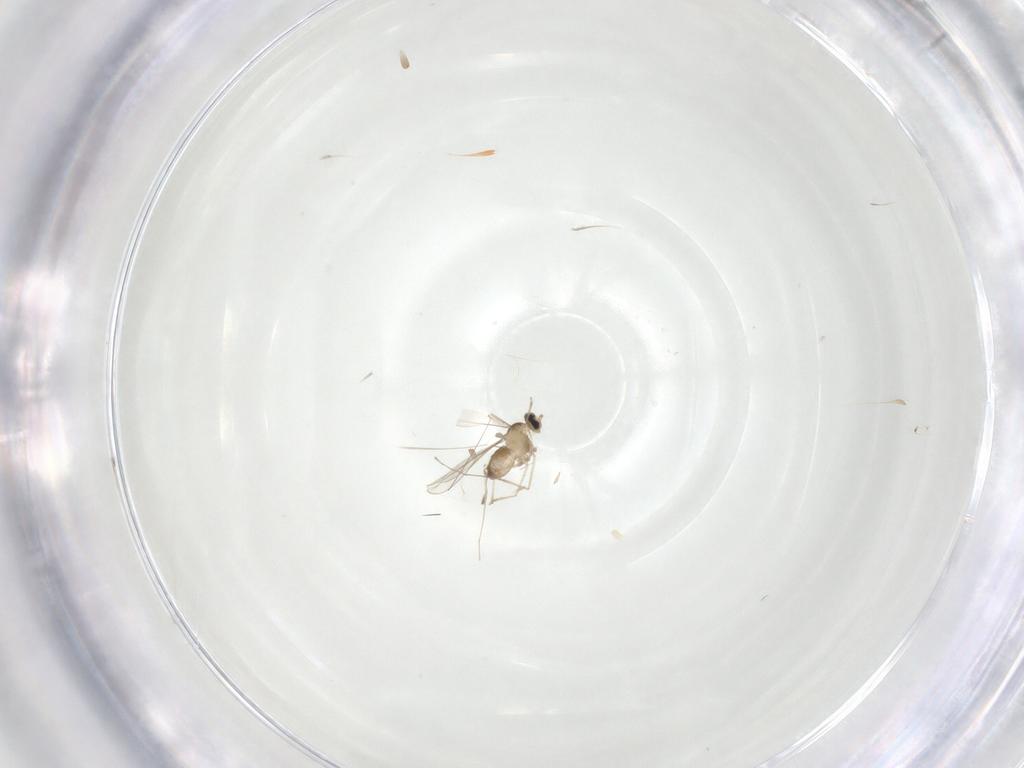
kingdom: Animalia
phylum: Arthropoda
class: Insecta
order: Diptera
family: Cecidomyiidae
